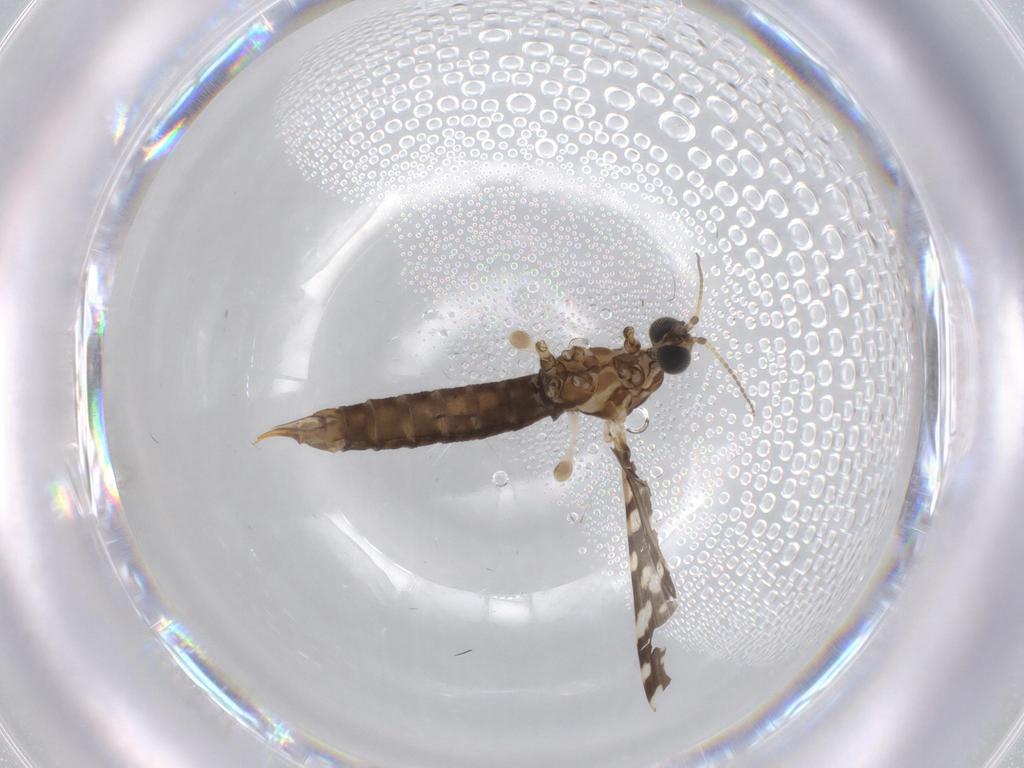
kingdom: Animalia
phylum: Arthropoda
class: Insecta
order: Diptera
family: Limoniidae
